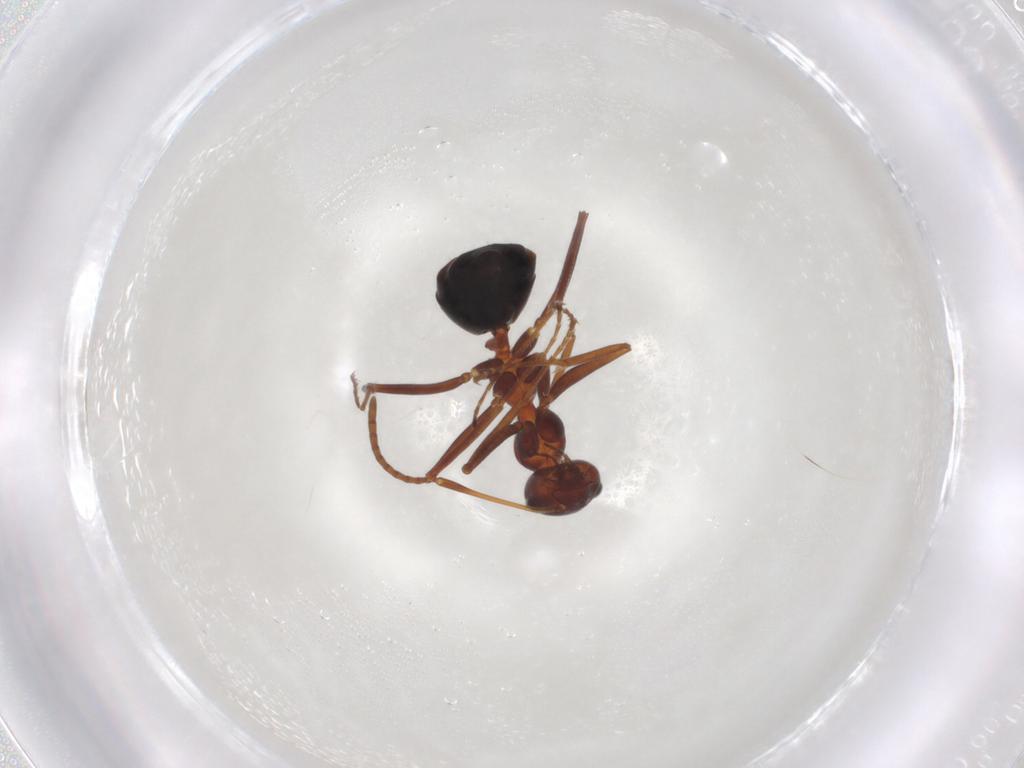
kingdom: Animalia
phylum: Arthropoda
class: Insecta
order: Hymenoptera
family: Formicidae
